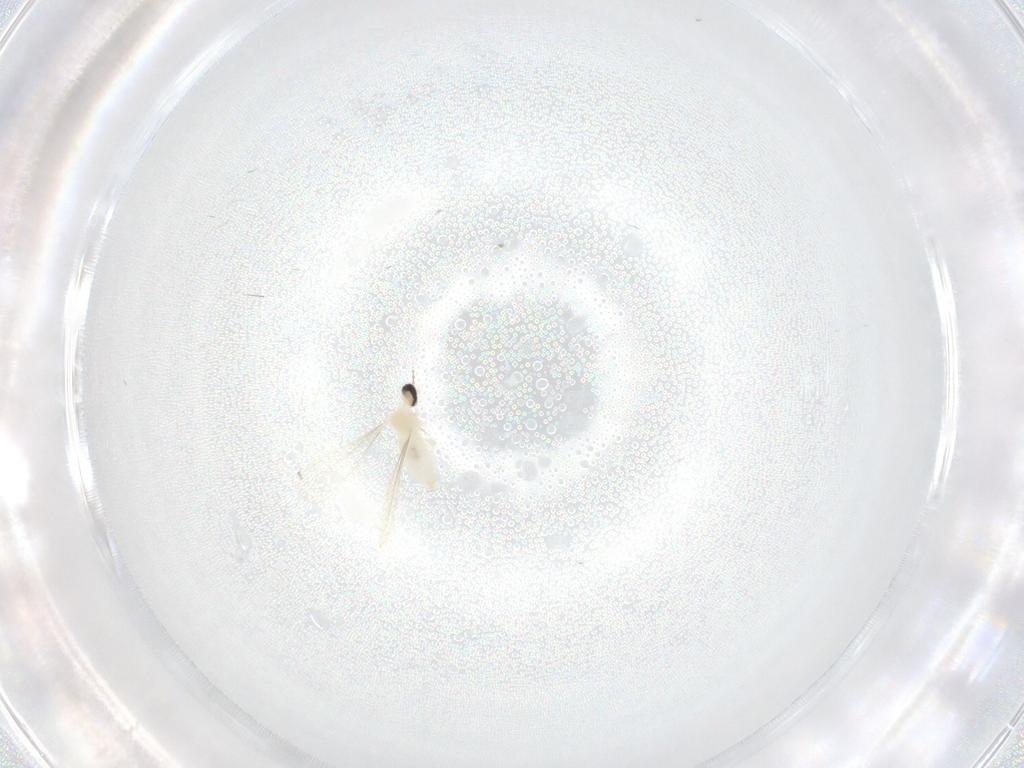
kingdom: Animalia
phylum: Arthropoda
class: Insecta
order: Diptera
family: Cecidomyiidae
